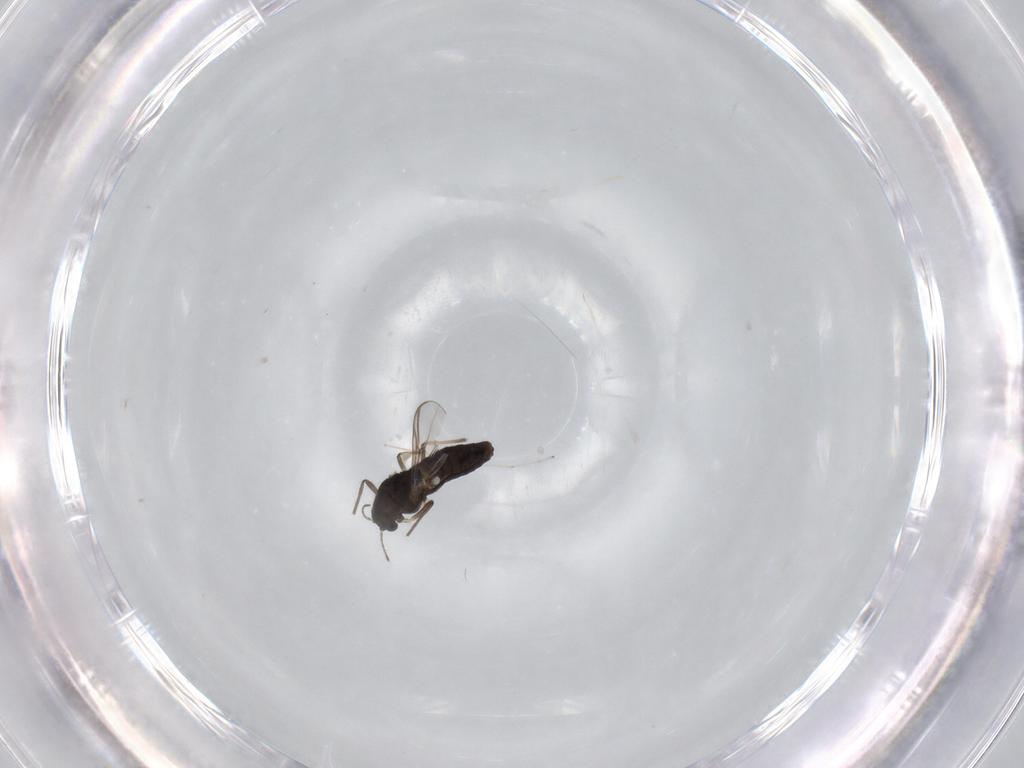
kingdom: Animalia
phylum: Arthropoda
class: Insecta
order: Diptera
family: Chironomidae
